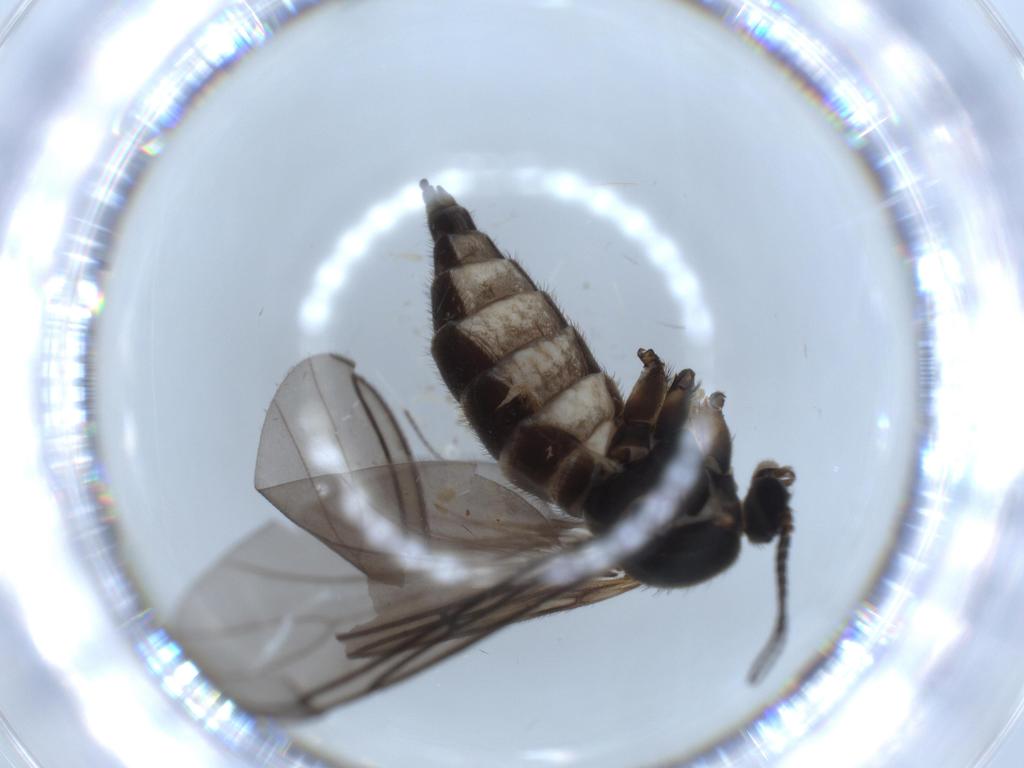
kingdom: Animalia
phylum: Arthropoda
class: Insecta
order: Diptera
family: Sciaridae
